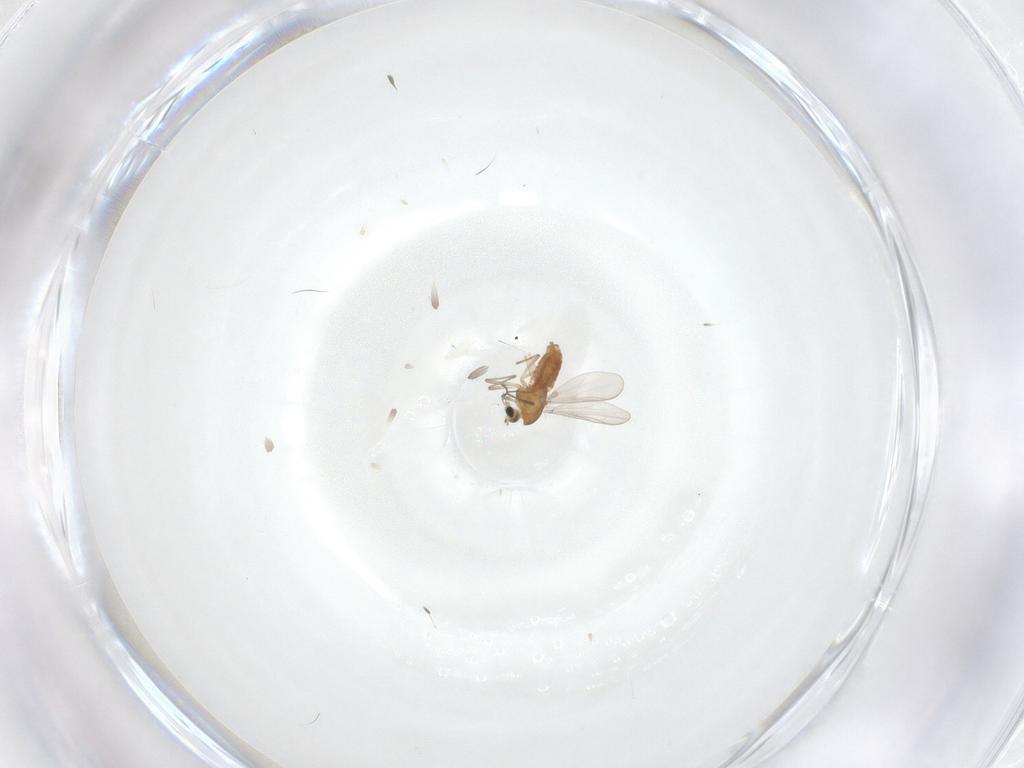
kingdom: Animalia
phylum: Arthropoda
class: Insecta
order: Diptera
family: Chironomidae
